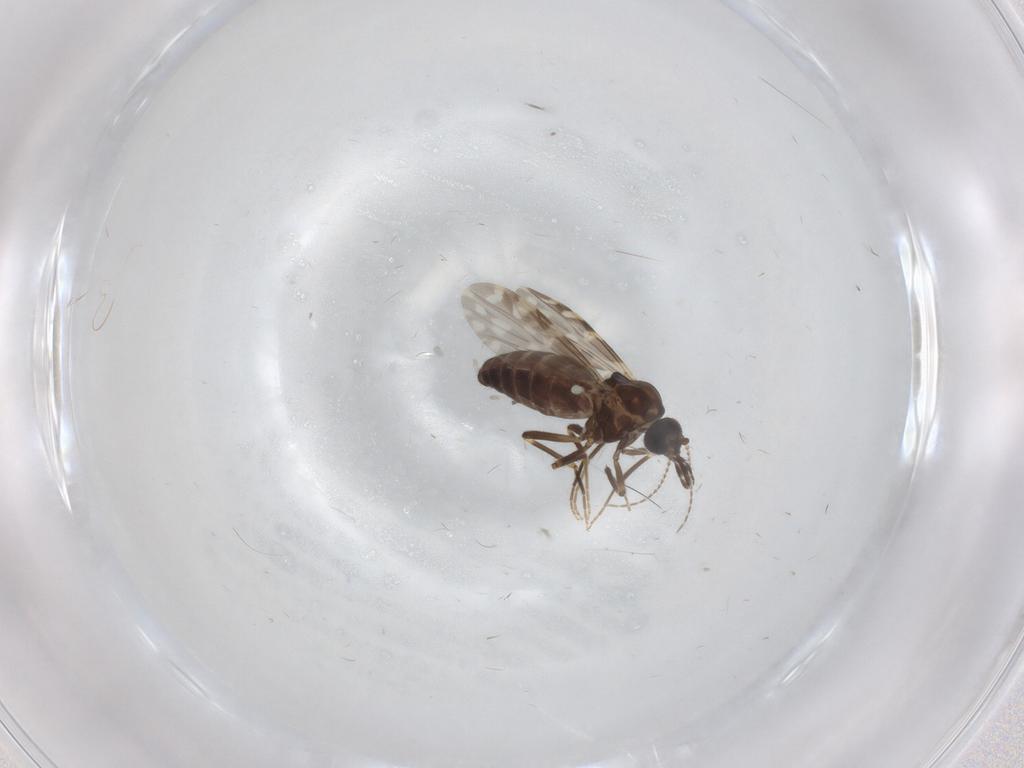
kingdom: Animalia
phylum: Arthropoda
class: Insecta
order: Diptera
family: Ceratopogonidae
